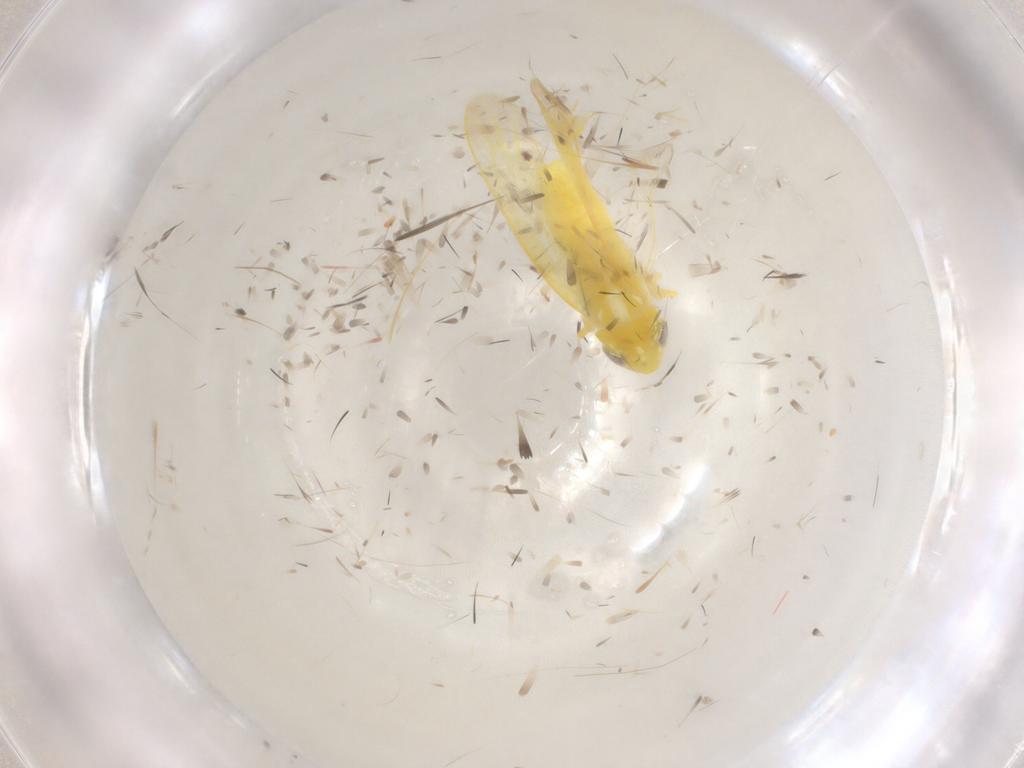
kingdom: Animalia
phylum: Arthropoda
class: Insecta
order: Hemiptera
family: Cicadellidae
